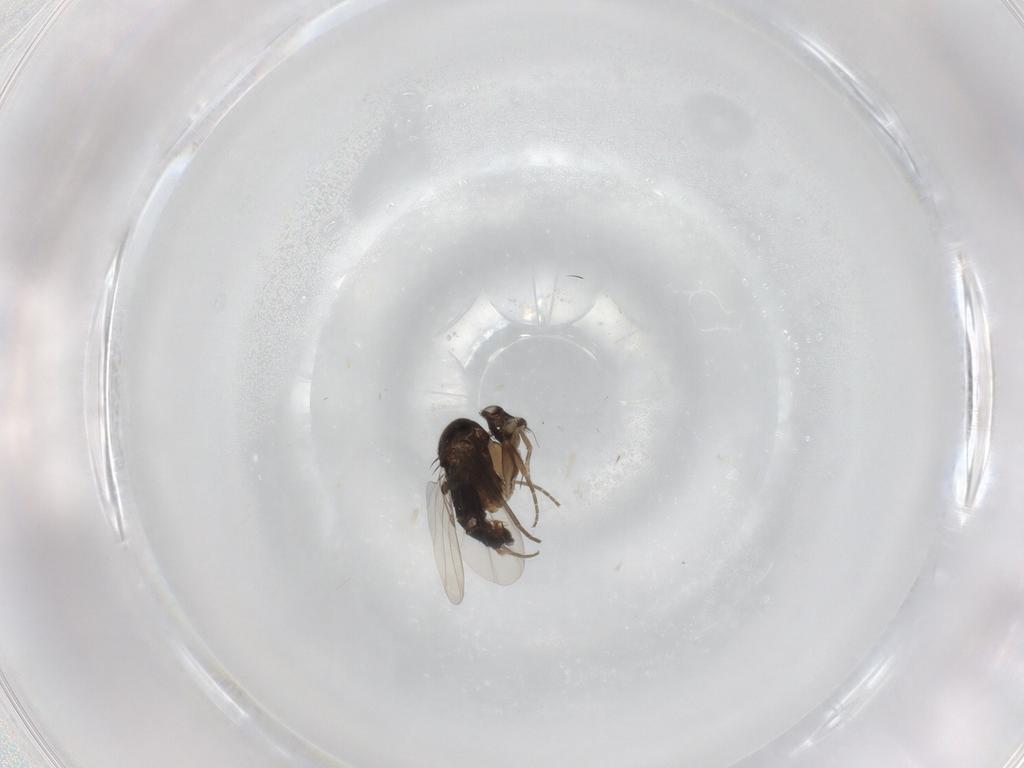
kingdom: Animalia
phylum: Arthropoda
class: Insecta
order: Diptera
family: Phoridae
